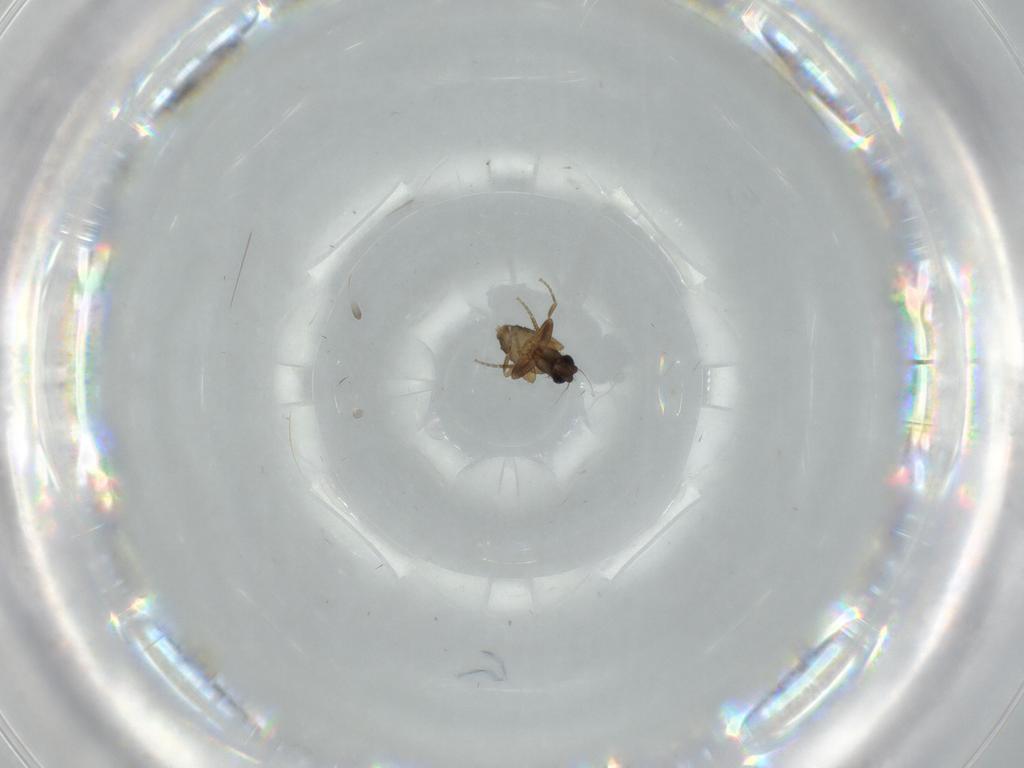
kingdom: Animalia
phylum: Arthropoda
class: Insecta
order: Diptera
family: Phoridae
